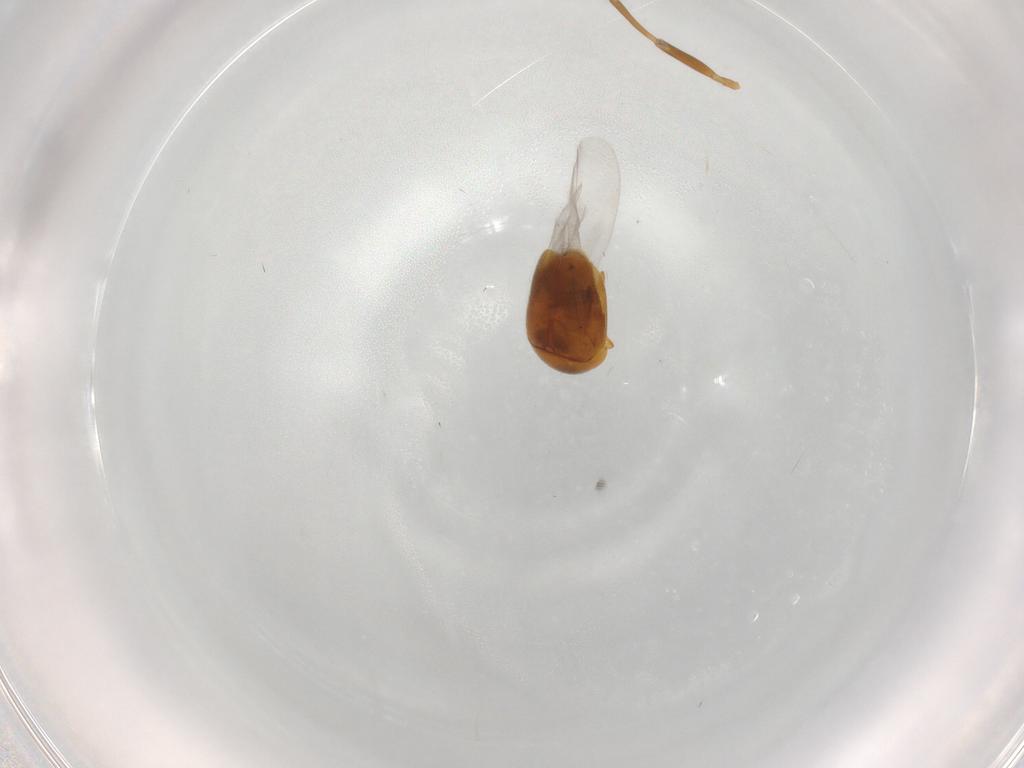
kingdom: Animalia
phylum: Arthropoda
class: Insecta
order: Coleoptera
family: Corylophidae
